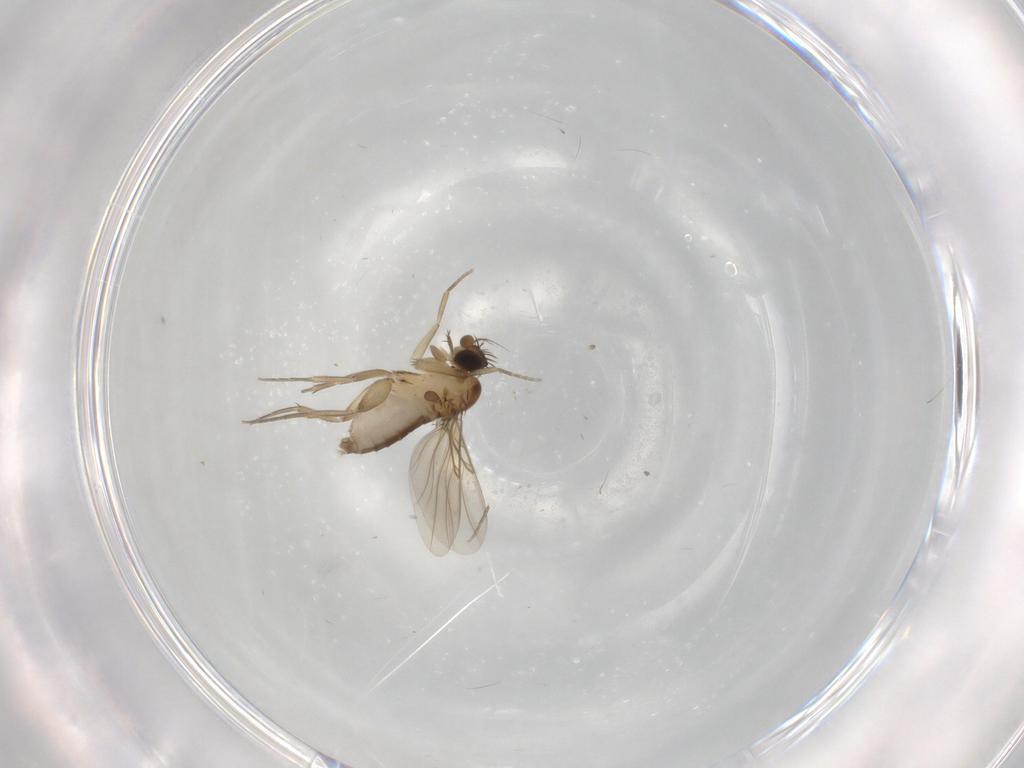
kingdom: Animalia
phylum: Arthropoda
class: Insecta
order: Diptera
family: Phoridae
